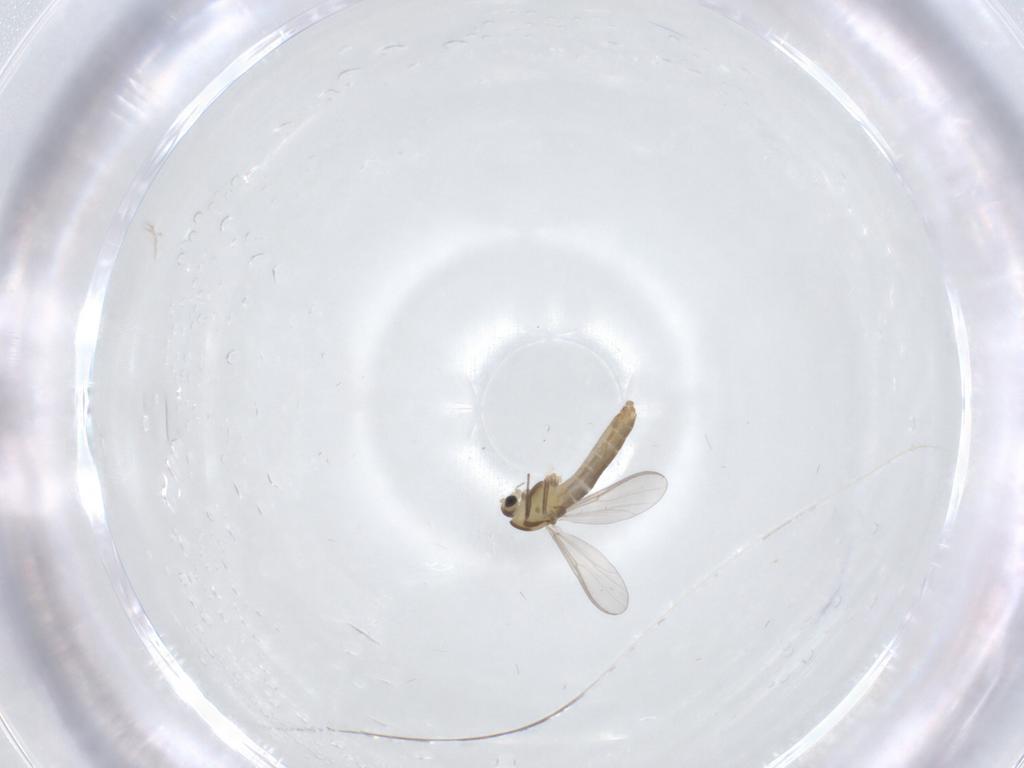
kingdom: Animalia
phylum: Arthropoda
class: Insecta
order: Diptera
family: Chironomidae
